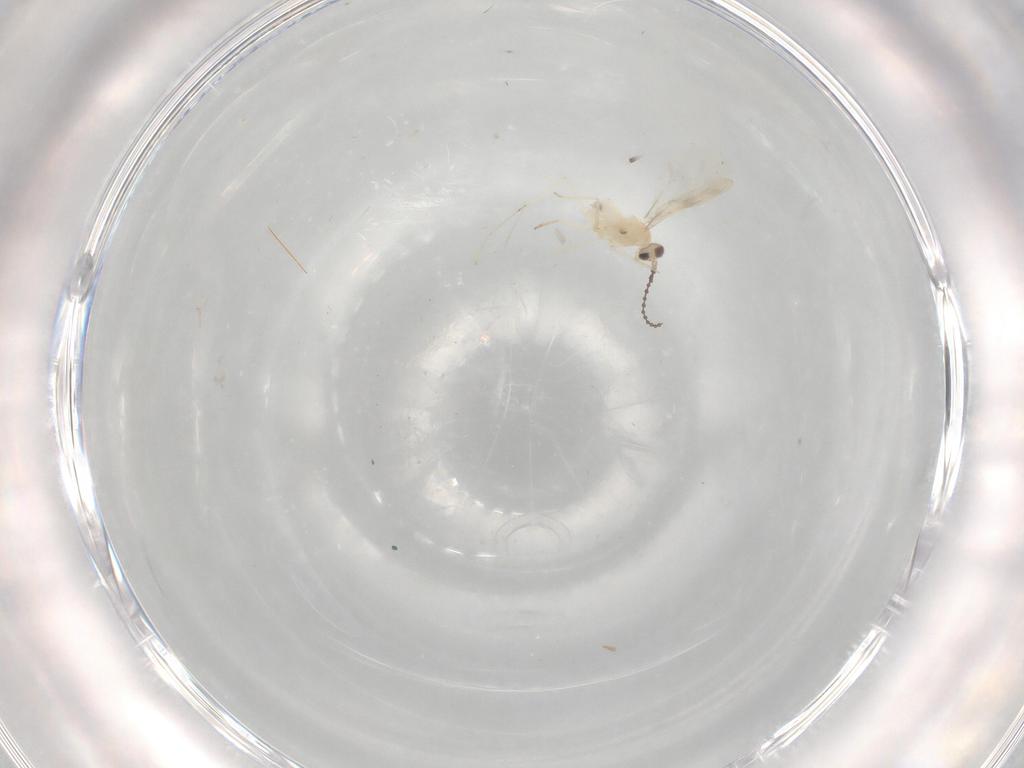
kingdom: Animalia
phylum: Arthropoda
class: Insecta
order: Diptera
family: Cecidomyiidae
